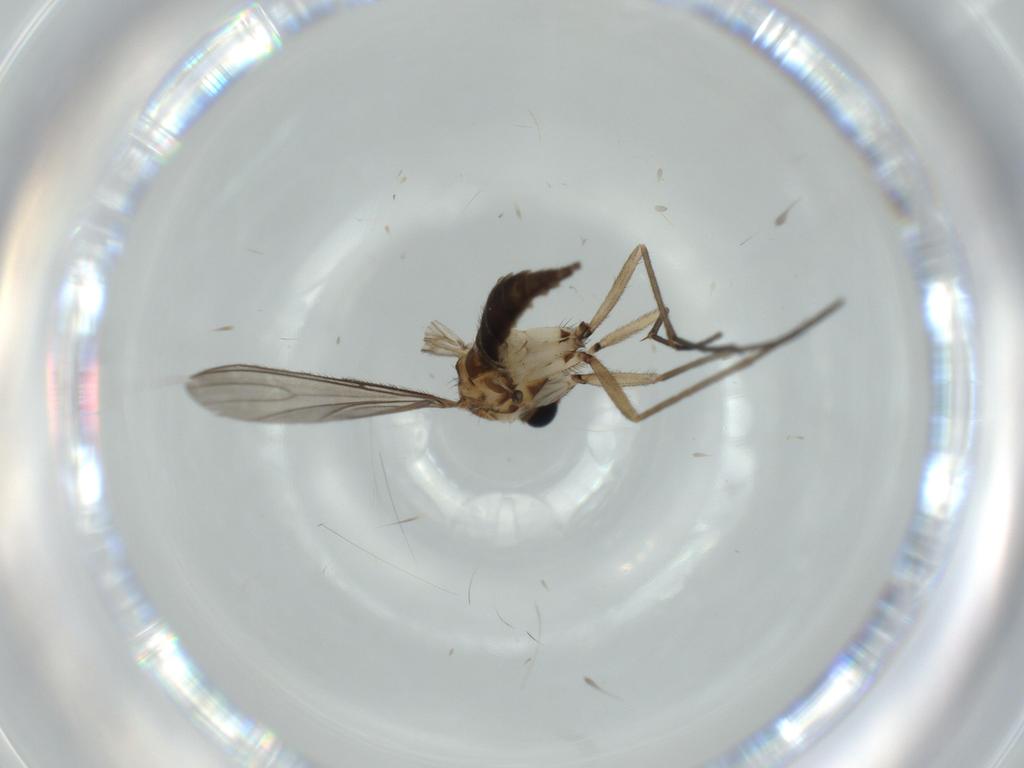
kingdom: Animalia
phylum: Arthropoda
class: Insecta
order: Diptera
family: Sciaridae
